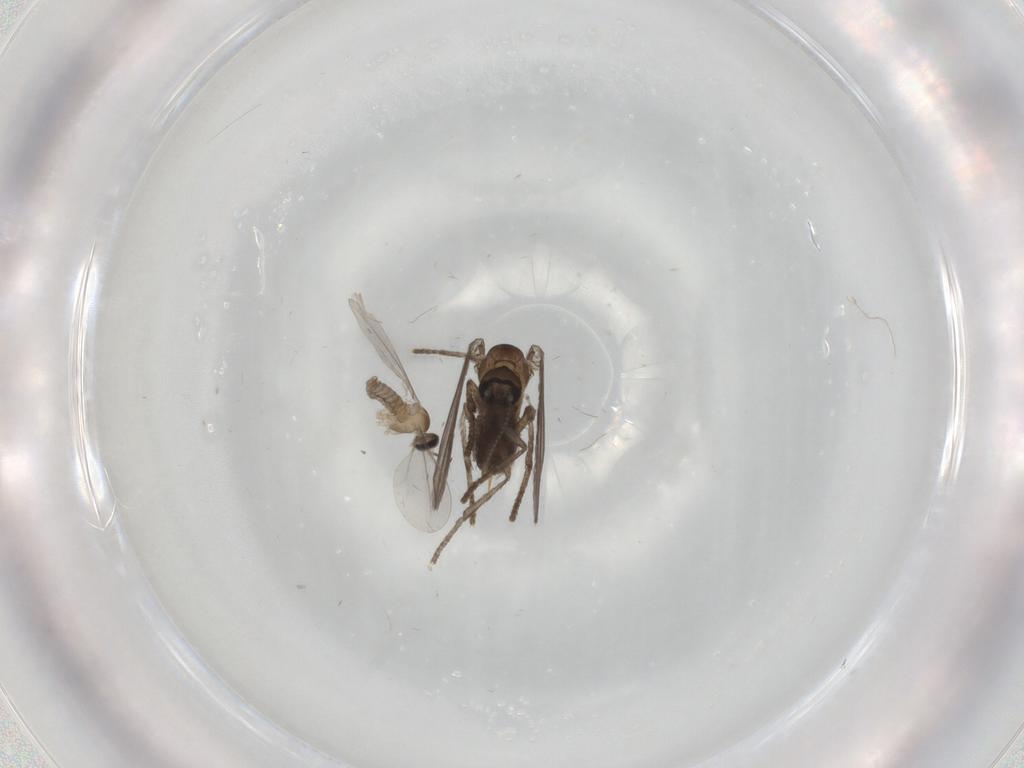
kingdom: Animalia
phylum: Arthropoda
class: Insecta
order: Diptera
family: Psychodidae
